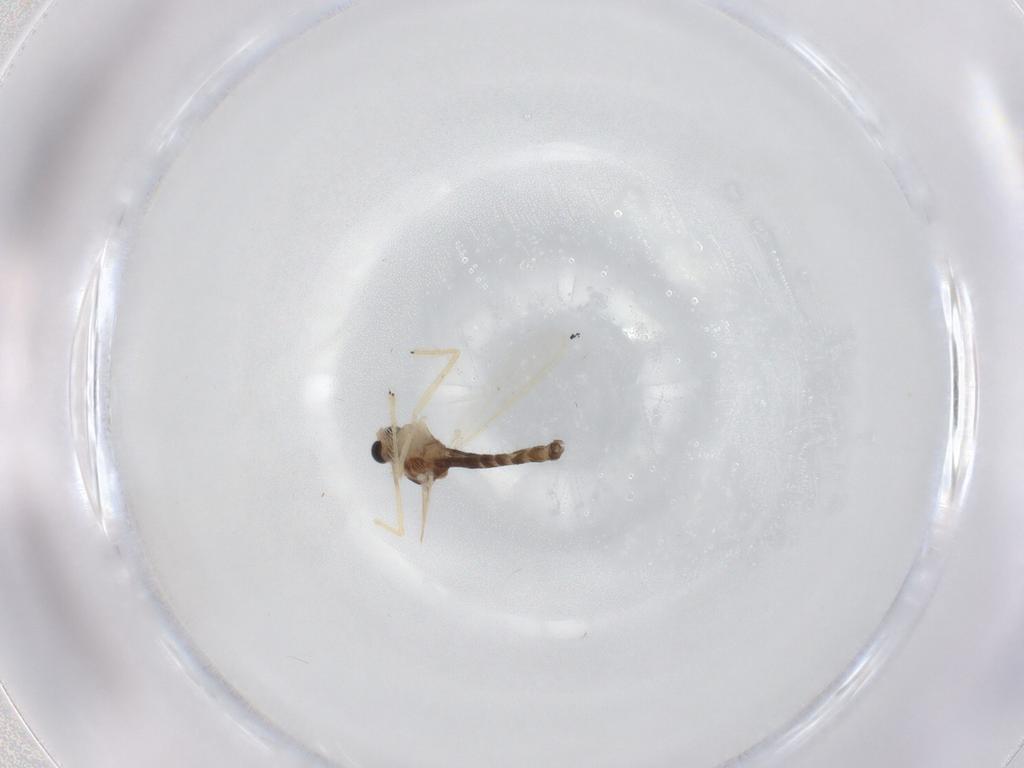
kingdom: Animalia
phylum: Arthropoda
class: Insecta
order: Diptera
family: Chironomidae
